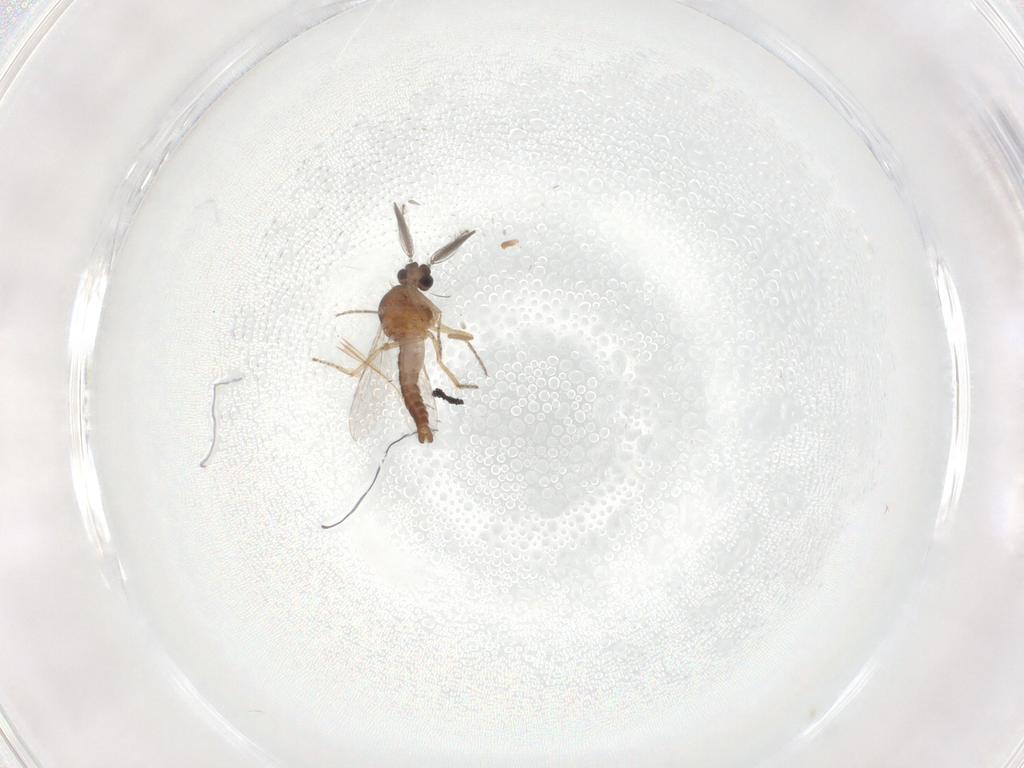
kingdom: Animalia
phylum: Arthropoda
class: Insecta
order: Diptera
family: Ceratopogonidae
